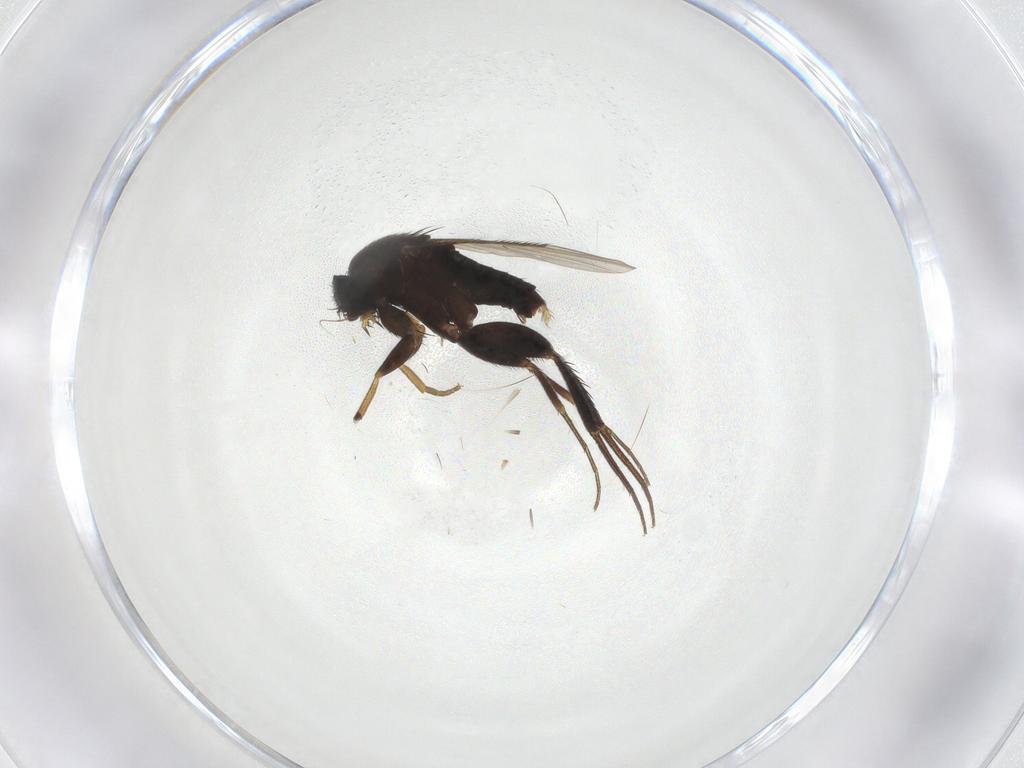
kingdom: Animalia
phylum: Arthropoda
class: Insecta
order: Diptera
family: Phoridae
